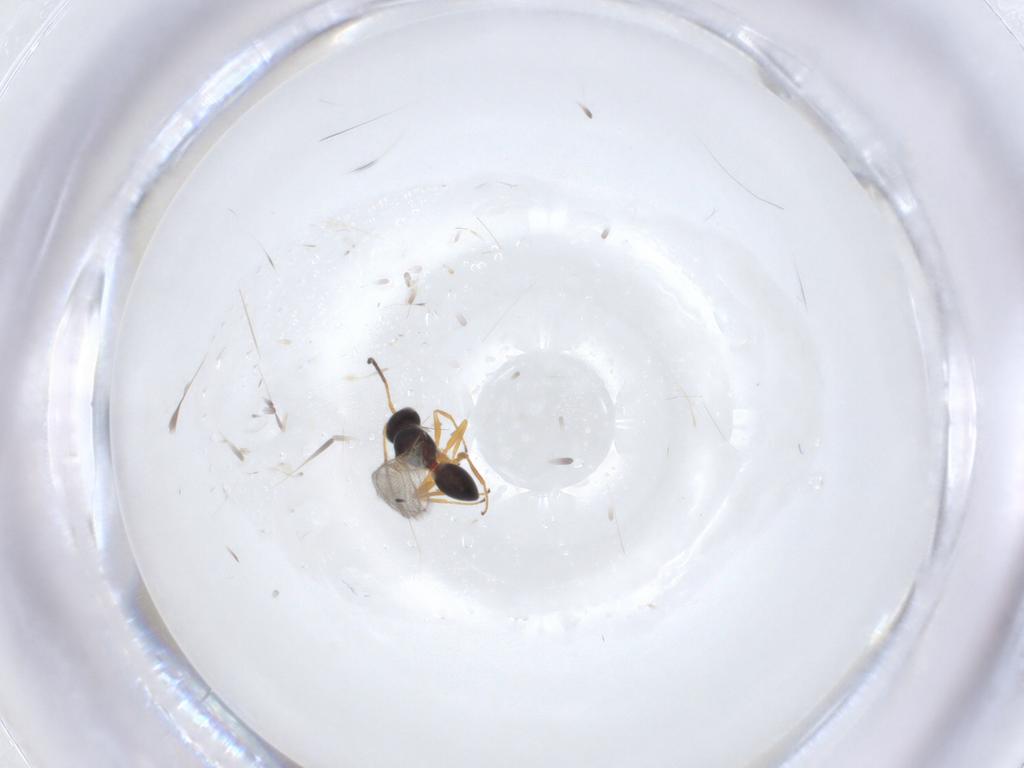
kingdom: Animalia
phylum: Arthropoda
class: Insecta
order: Hymenoptera
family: Figitidae
